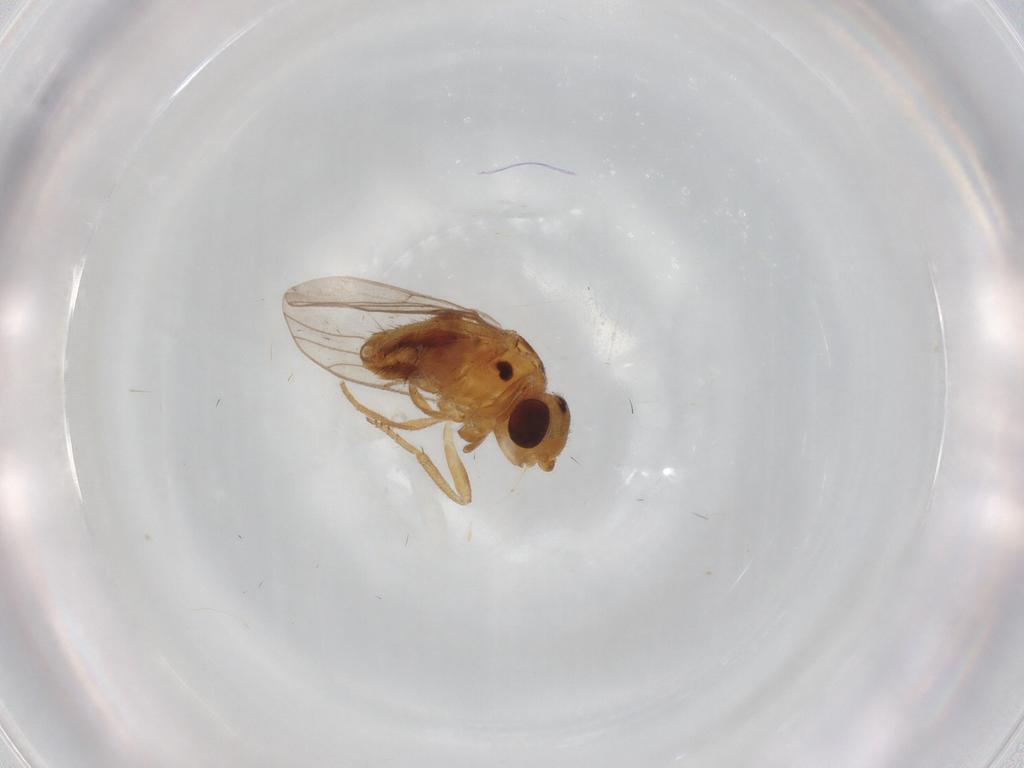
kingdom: Animalia
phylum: Arthropoda
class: Insecta
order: Diptera
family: Chloropidae
